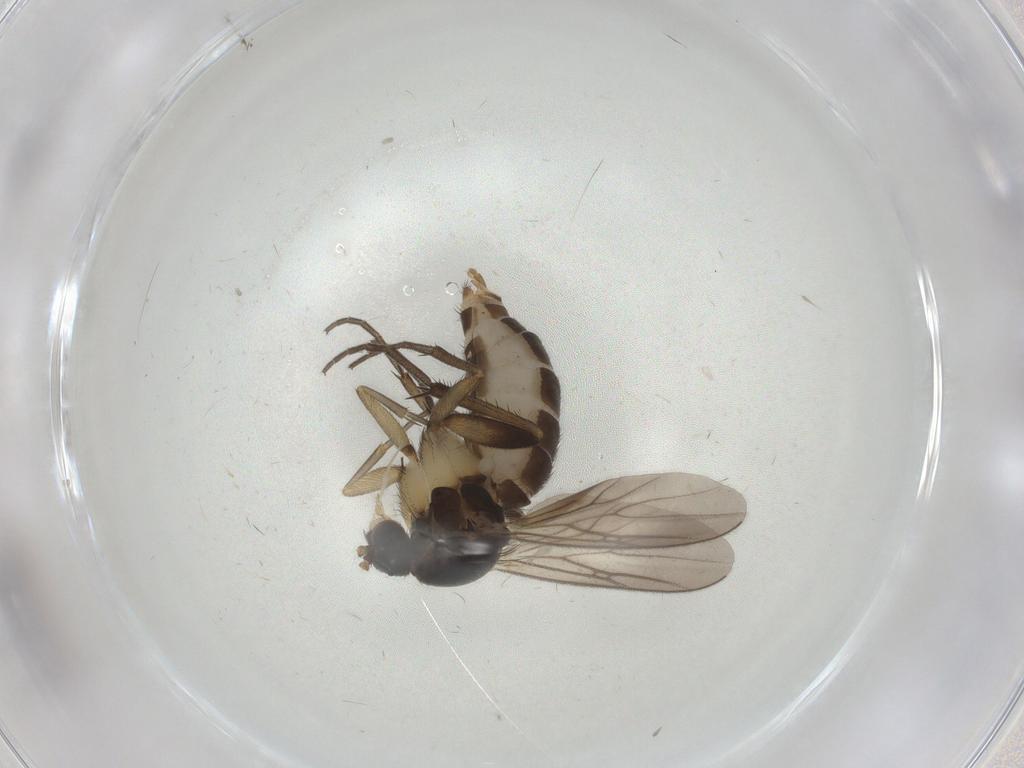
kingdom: Animalia
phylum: Arthropoda
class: Insecta
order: Diptera
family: Mycetophilidae
